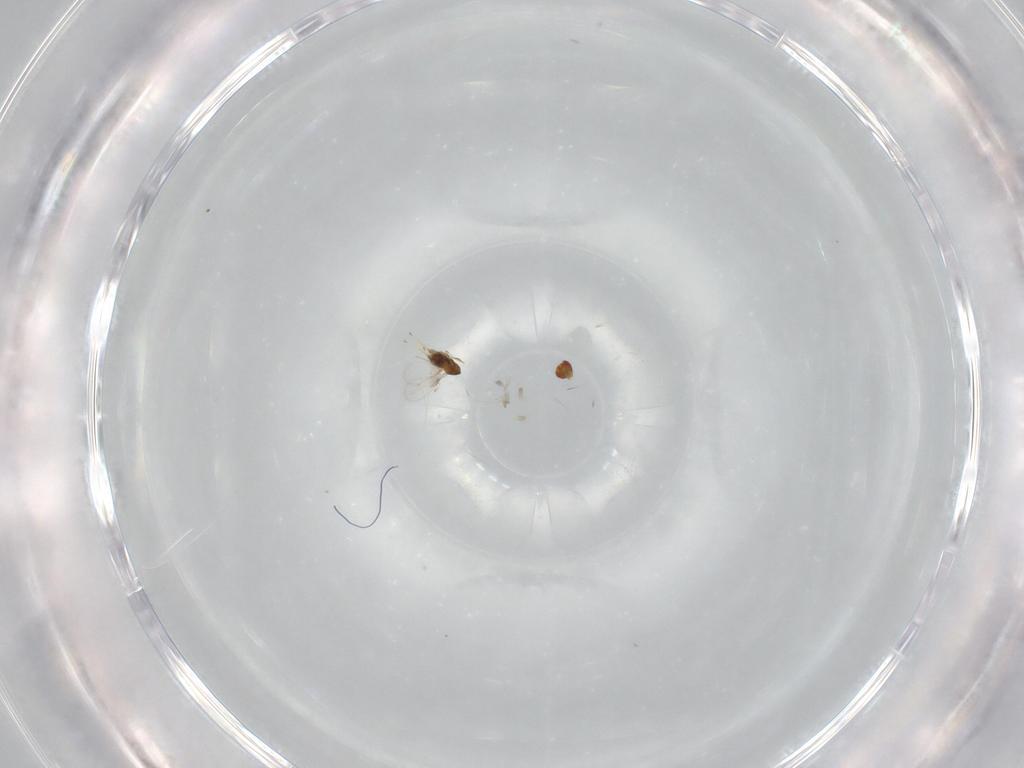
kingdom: Animalia
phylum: Arthropoda
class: Insecta
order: Hymenoptera
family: Trichogrammatidae
